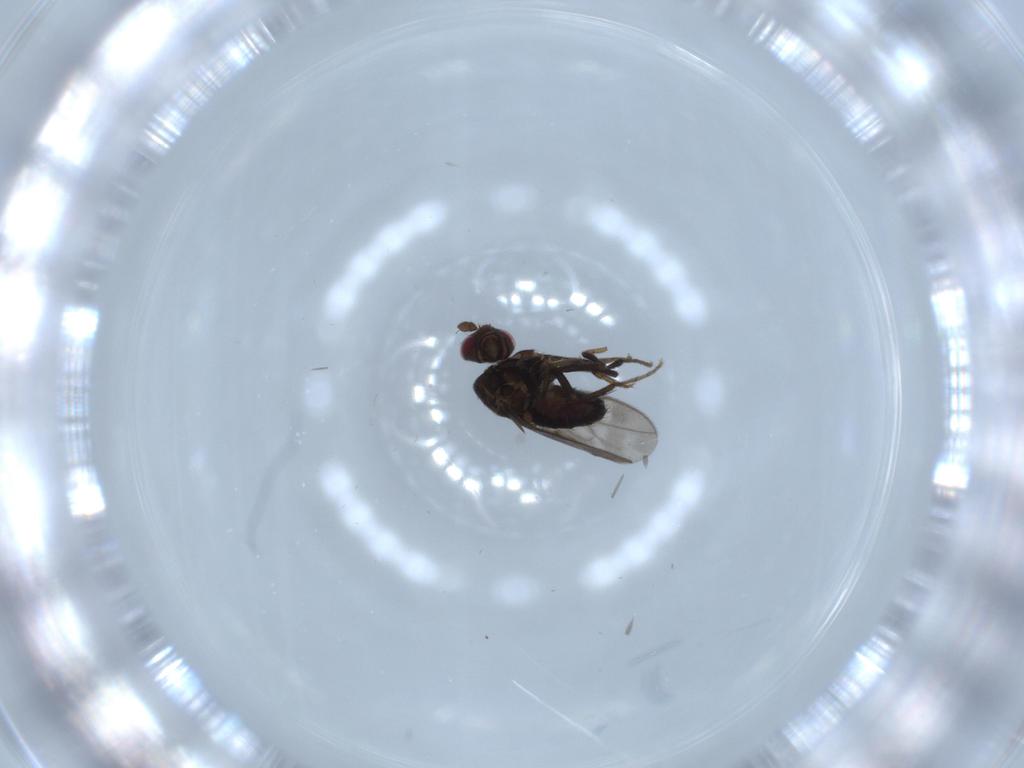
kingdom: Animalia
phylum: Arthropoda
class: Insecta
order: Diptera
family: Sphaeroceridae
